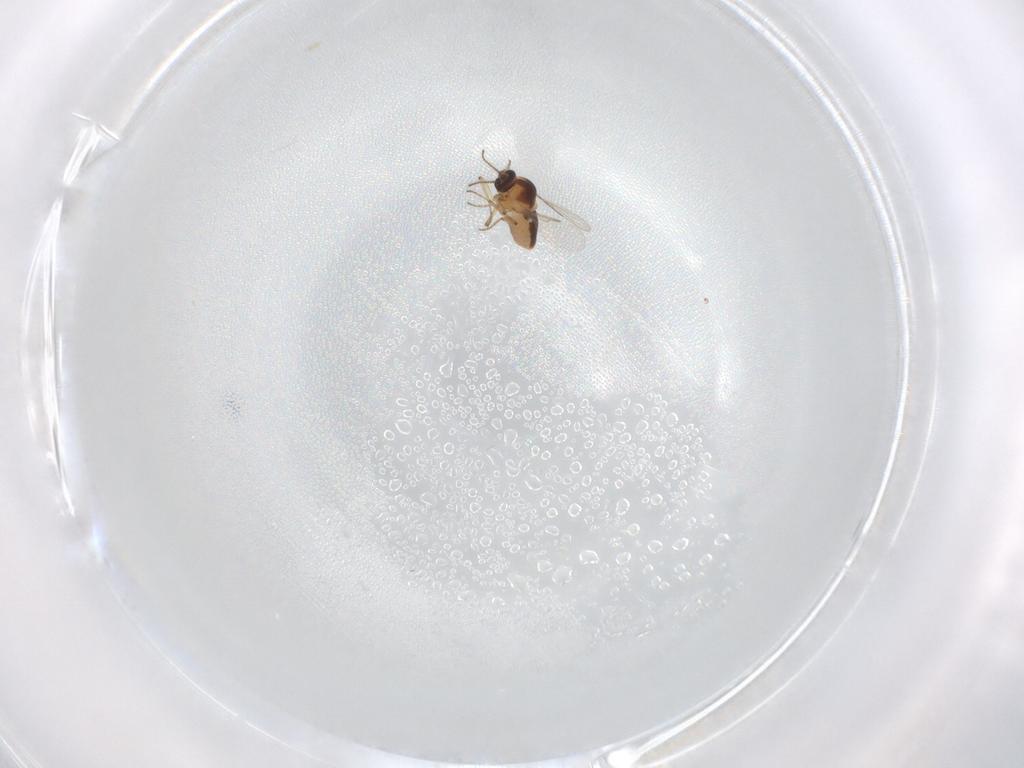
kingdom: Animalia
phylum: Arthropoda
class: Insecta
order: Diptera
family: Ceratopogonidae
